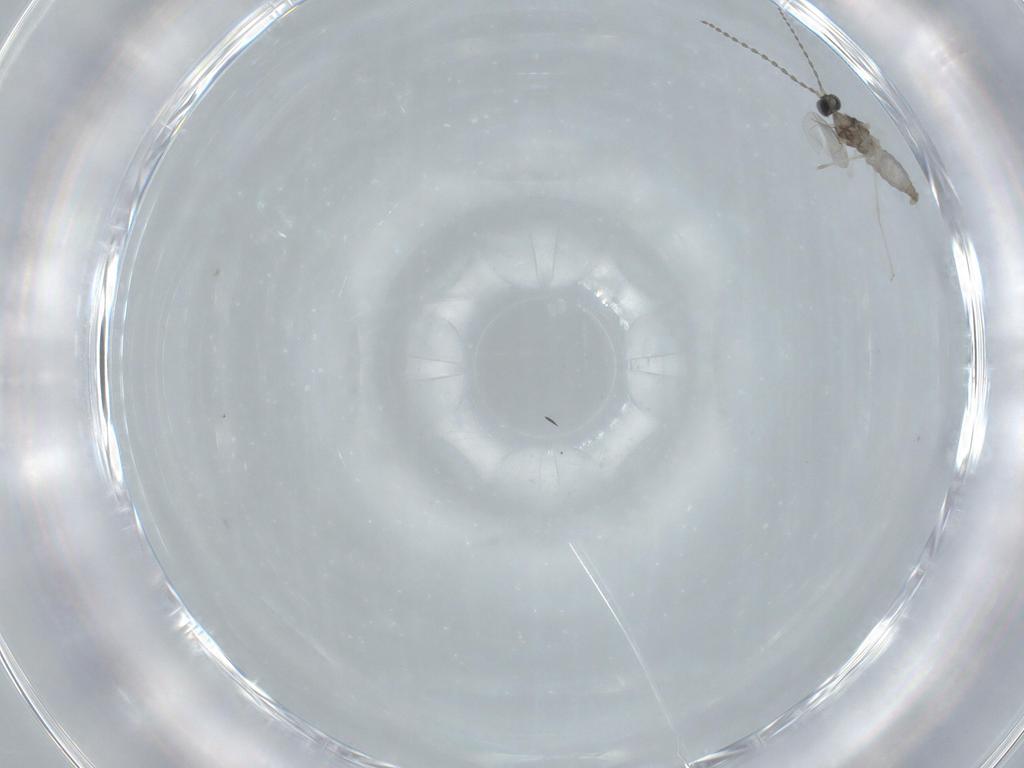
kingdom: Animalia
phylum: Arthropoda
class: Insecta
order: Diptera
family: Cecidomyiidae
